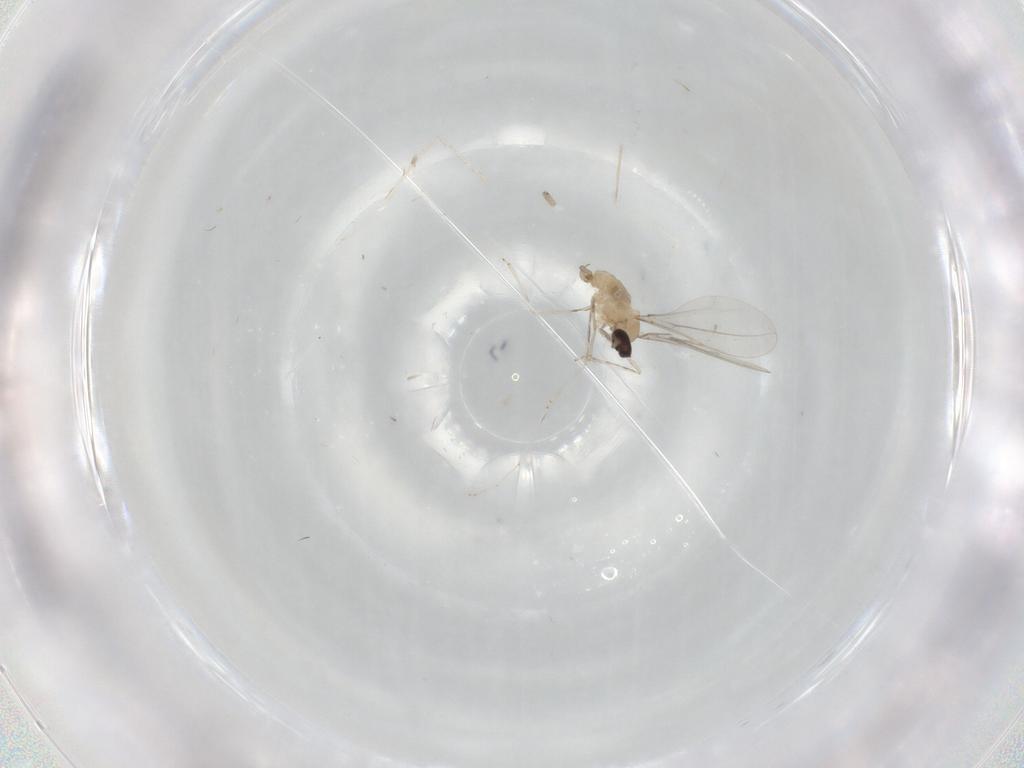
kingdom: Animalia
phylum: Arthropoda
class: Insecta
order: Diptera
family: Cecidomyiidae
